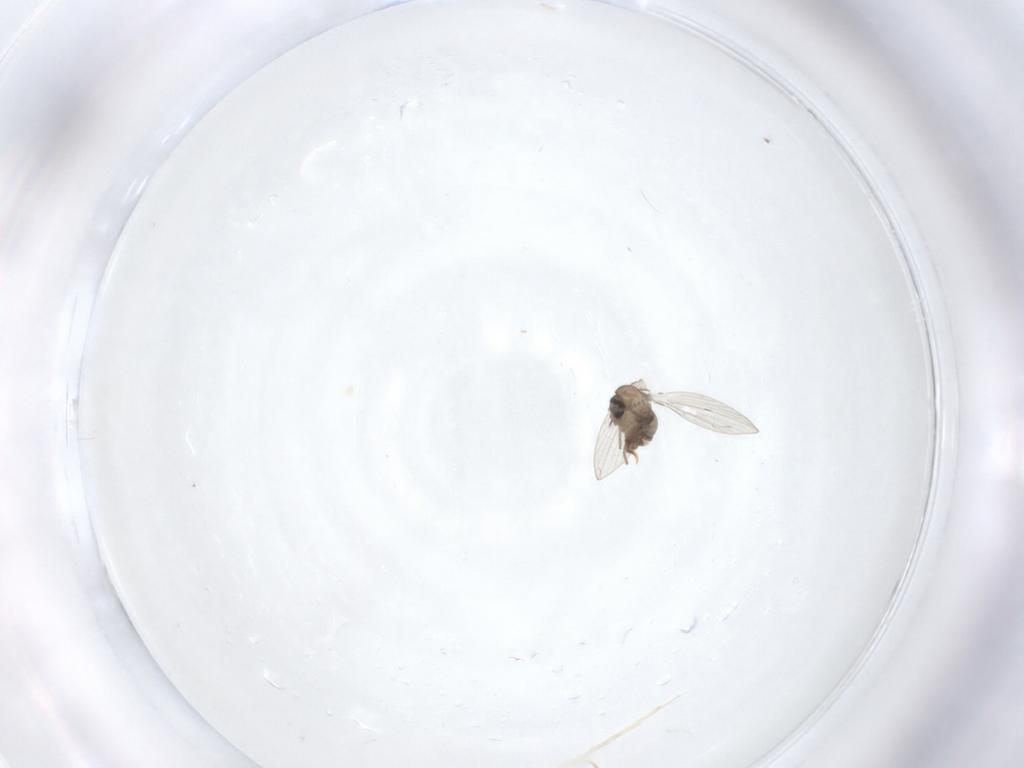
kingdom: Animalia
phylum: Arthropoda
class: Insecta
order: Diptera
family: Psychodidae
